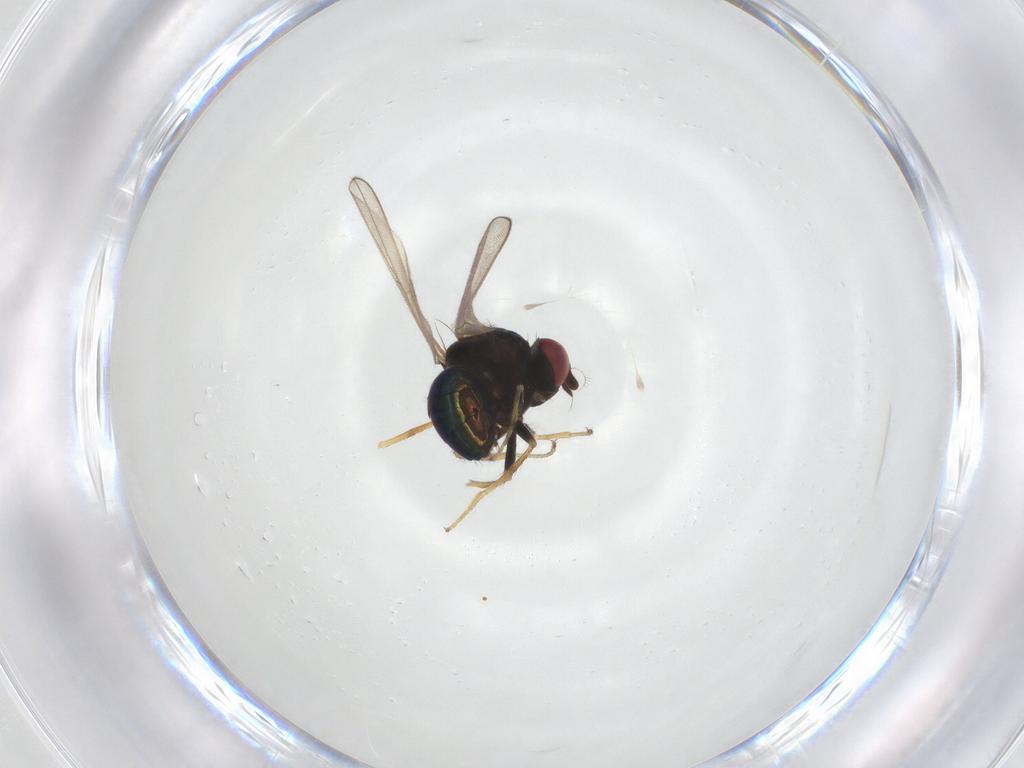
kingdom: Animalia
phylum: Arthropoda
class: Insecta
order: Diptera
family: Ephydridae
